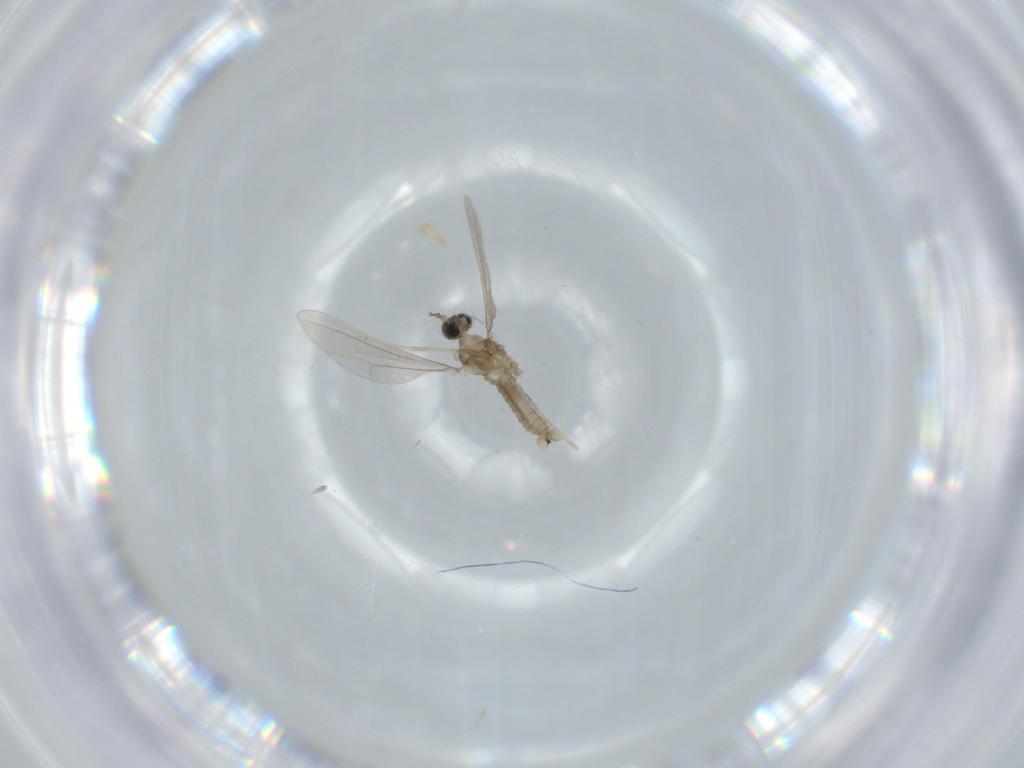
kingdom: Animalia
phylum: Arthropoda
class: Insecta
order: Diptera
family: Cecidomyiidae
